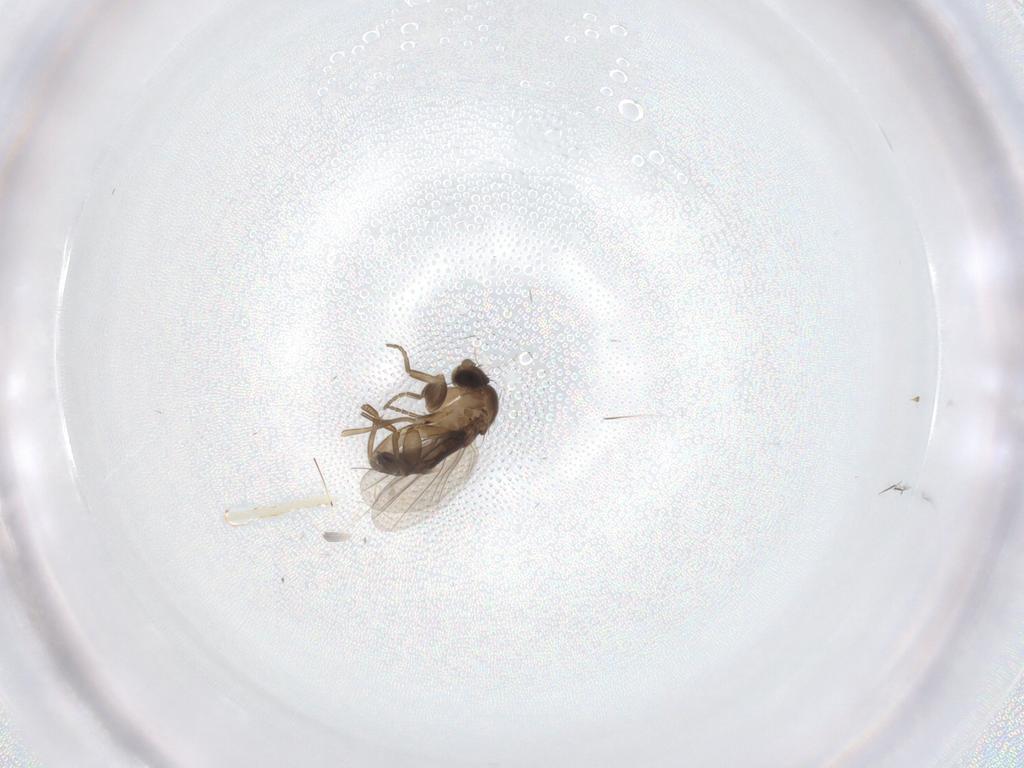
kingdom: Animalia
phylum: Arthropoda
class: Insecta
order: Diptera
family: Phoridae
